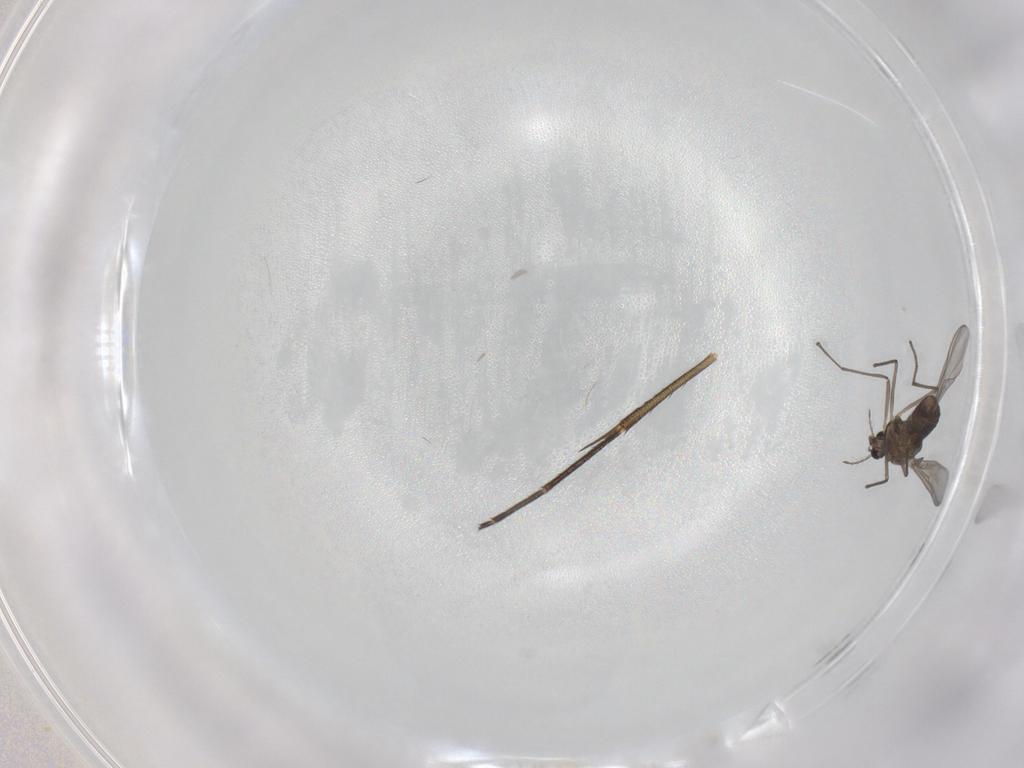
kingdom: Animalia
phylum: Arthropoda
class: Insecta
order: Diptera
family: Chironomidae
